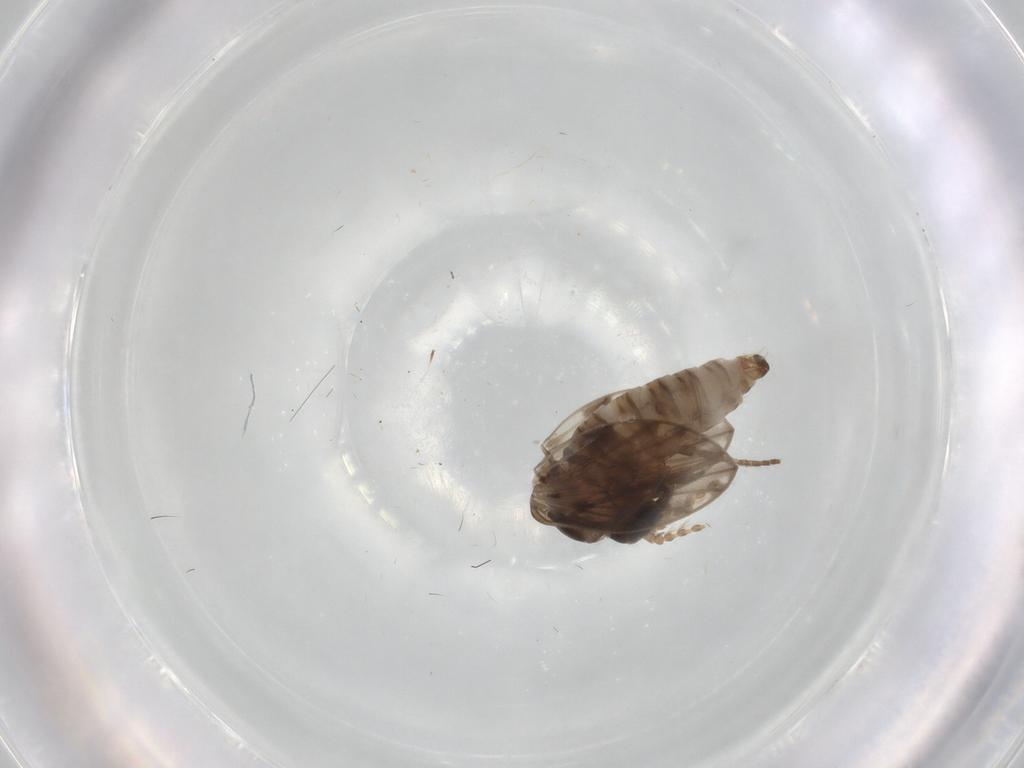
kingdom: Animalia
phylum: Arthropoda
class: Insecta
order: Diptera
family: Psychodidae
